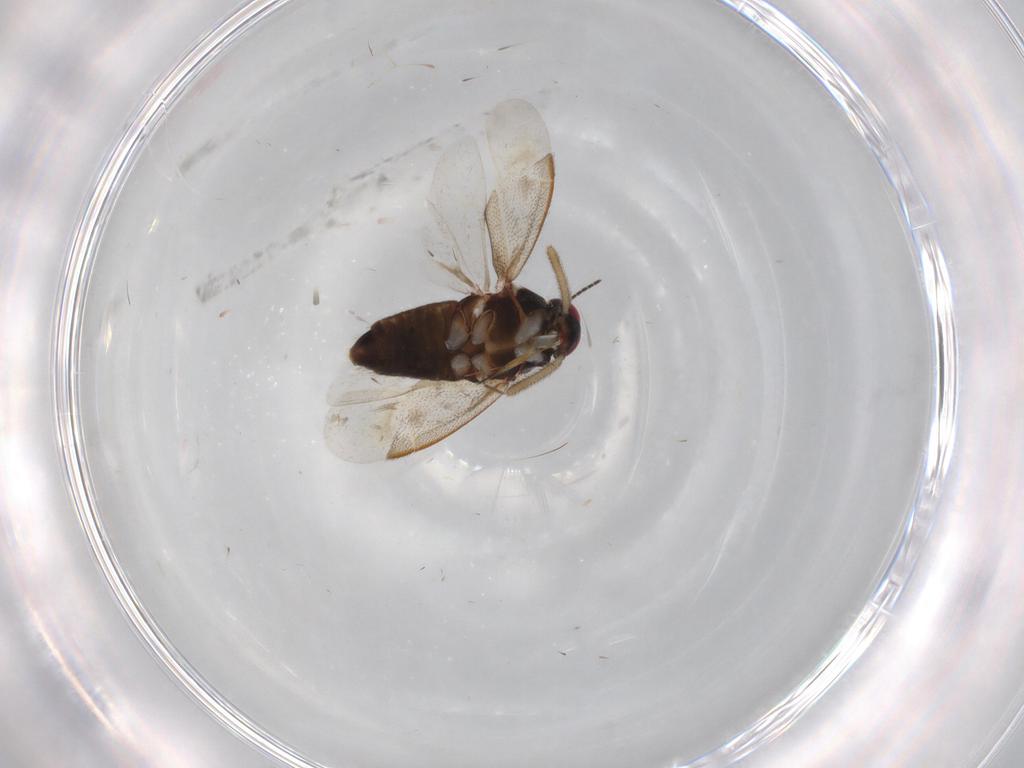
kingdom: Animalia
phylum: Arthropoda
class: Insecta
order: Hemiptera
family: Miridae
